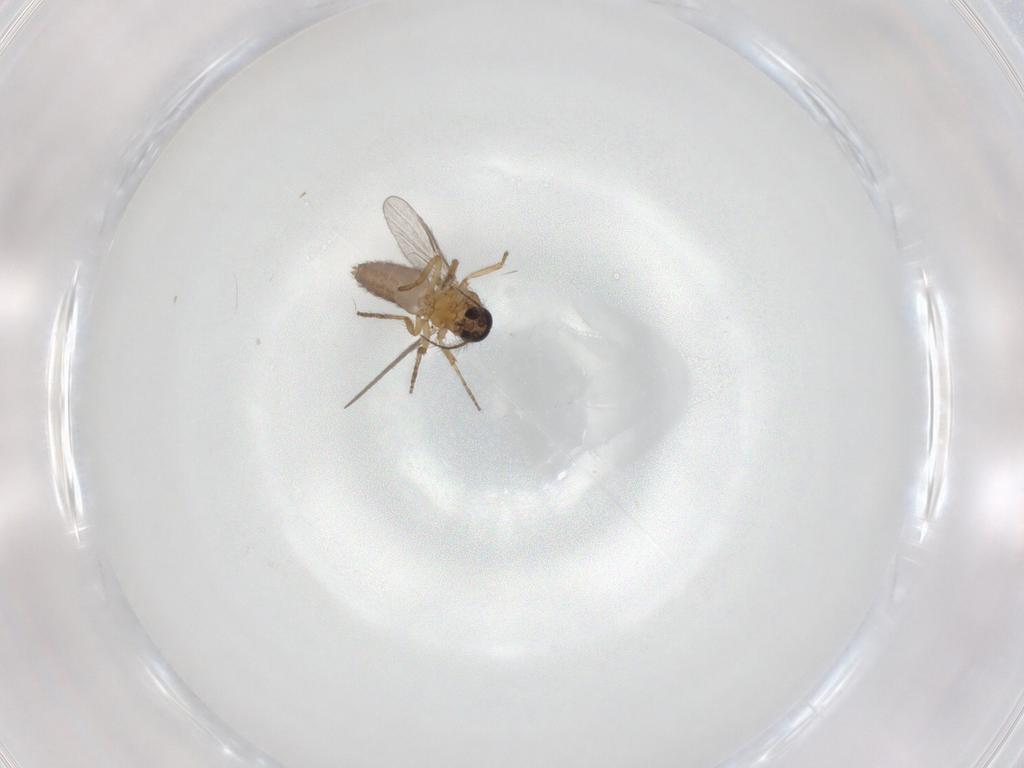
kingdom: Animalia
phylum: Arthropoda
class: Insecta
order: Diptera
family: Ceratopogonidae
